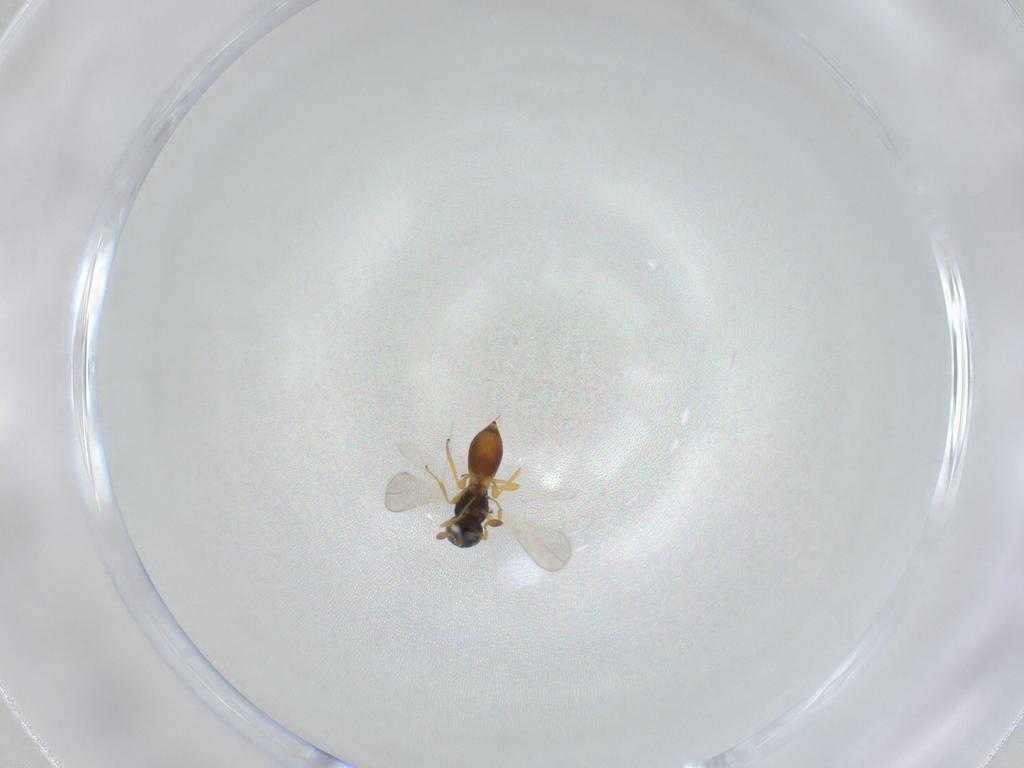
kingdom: Animalia
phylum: Arthropoda
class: Insecta
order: Hymenoptera
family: Platygastridae
